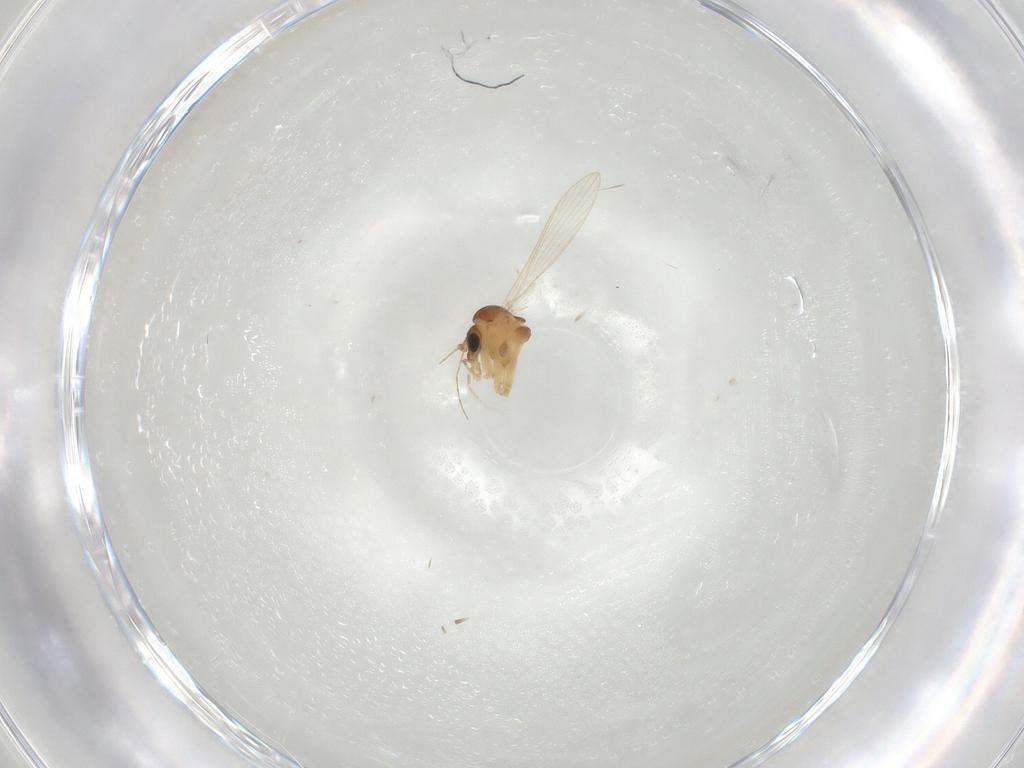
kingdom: Animalia
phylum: Arthropoda
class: Insecta
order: Diptera
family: Psychodidae
